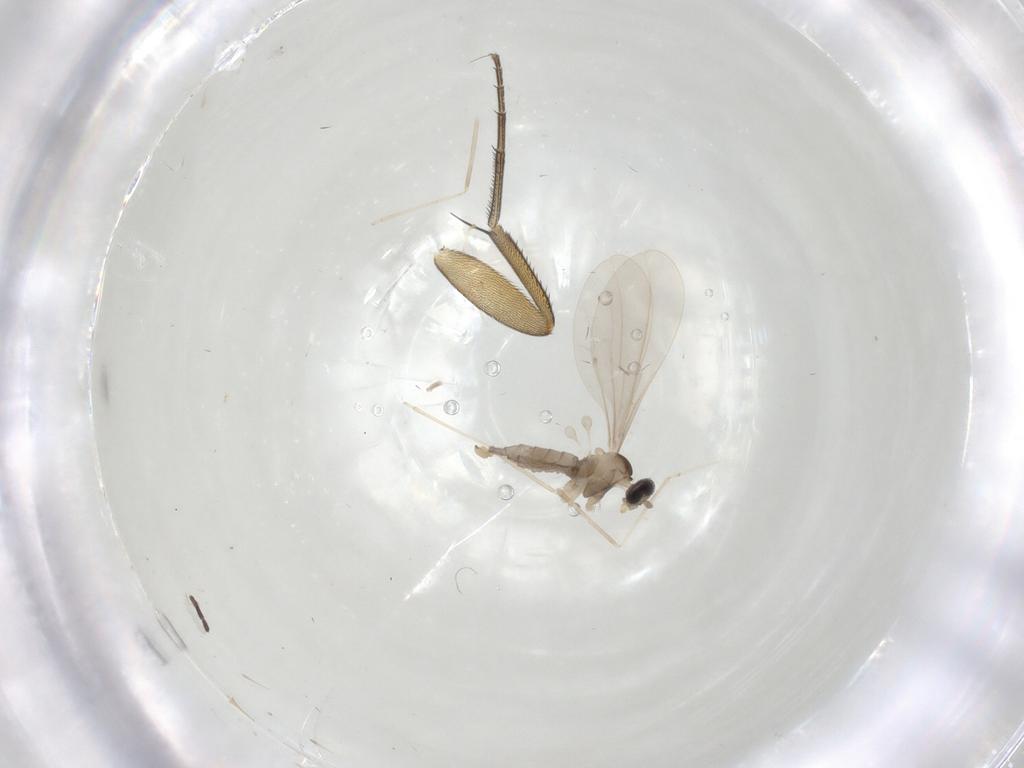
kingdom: Animalia
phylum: Arthropoda
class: Insecta
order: Diptera
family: Cecidomyiidae
